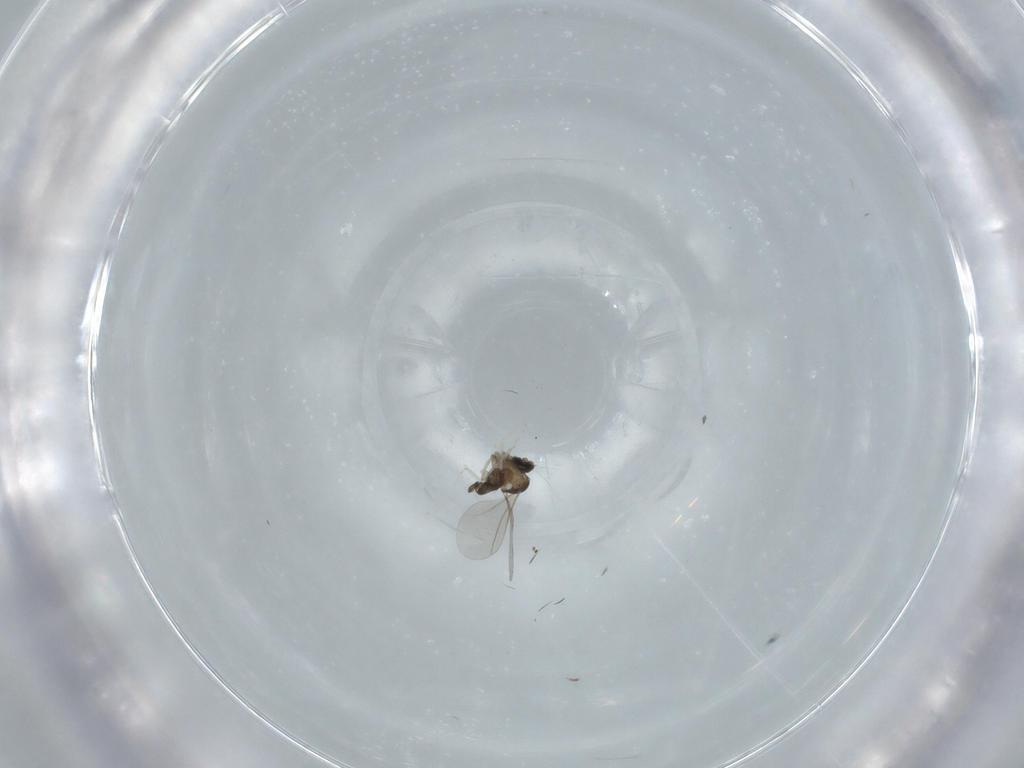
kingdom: Animalia
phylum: Arthropoda
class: Insecta
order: Diptera
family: Cecidomyiidae
